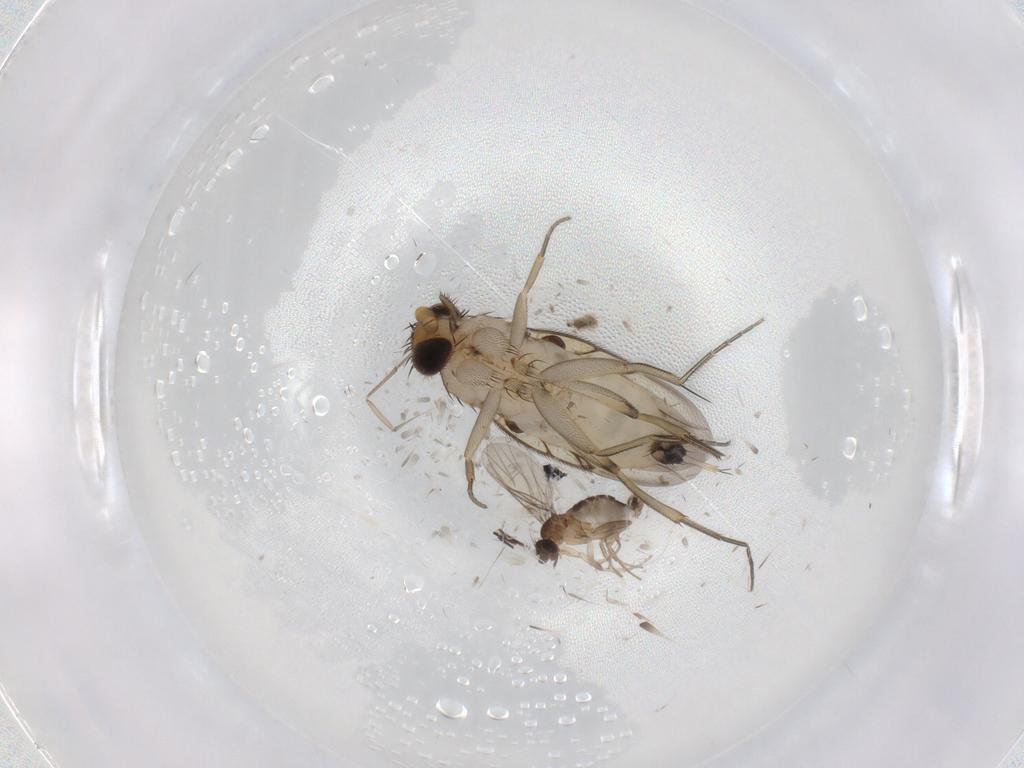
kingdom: Animalia
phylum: Arthropoda
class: Insecta
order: Diptera
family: Phoridae
